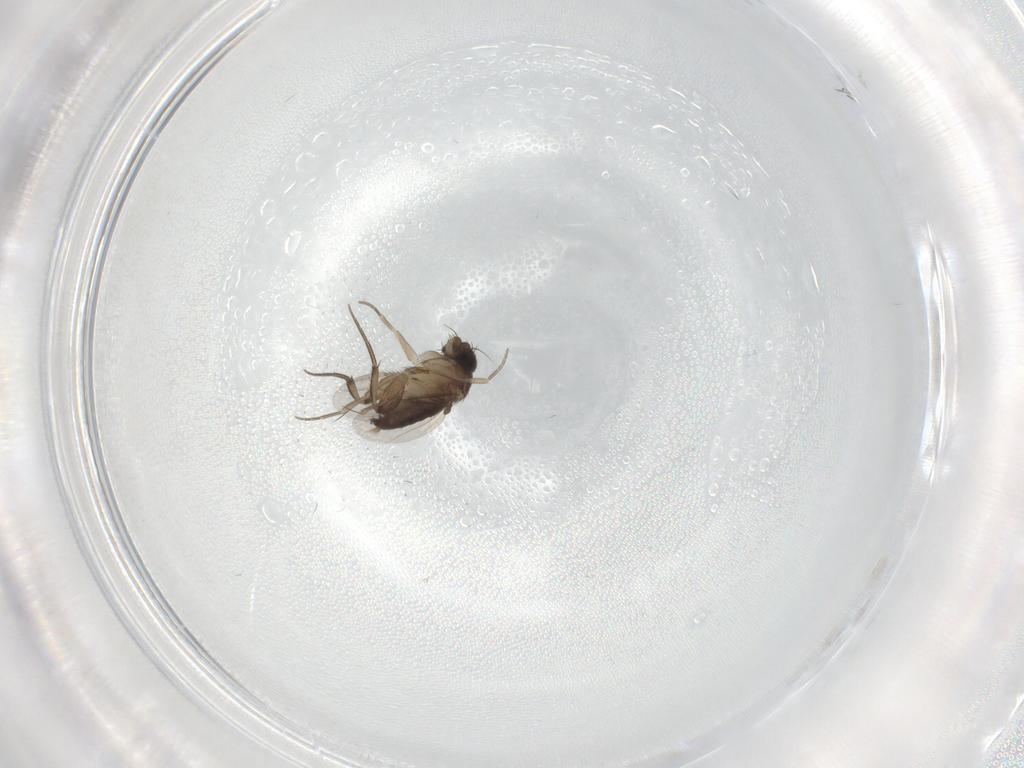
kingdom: Animalia
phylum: Arthropoda
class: Insecta
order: Diptera
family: Phoridae
